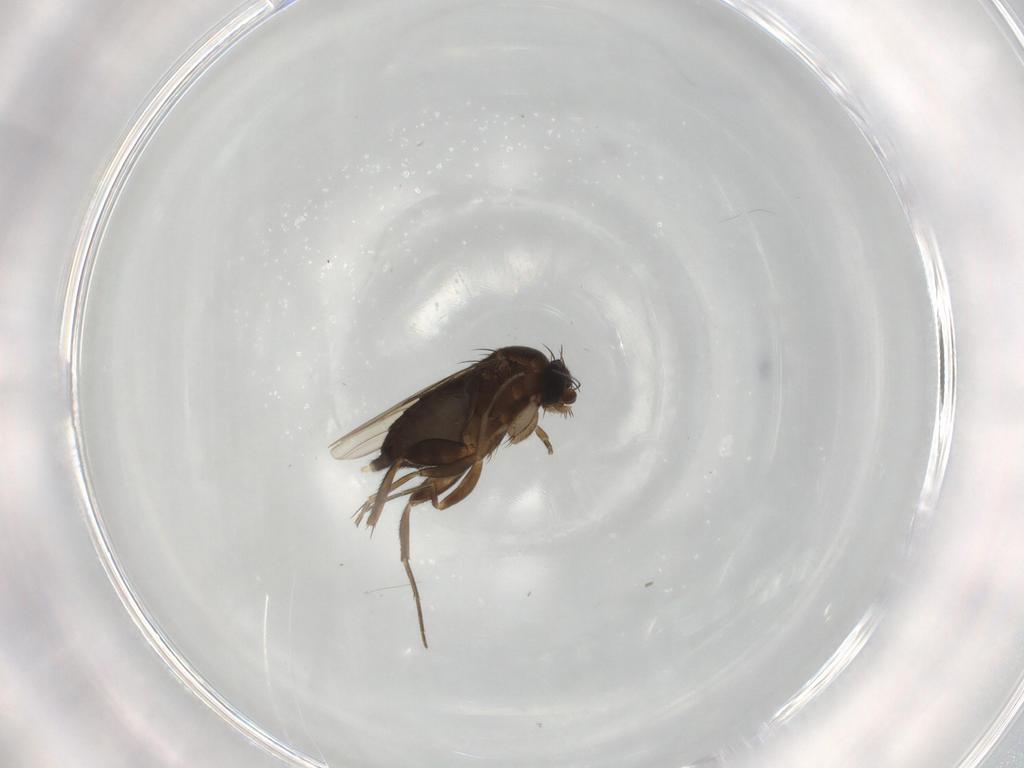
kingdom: Animalia
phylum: Arthropoda
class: Insecta
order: Diptera
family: Phoridae
